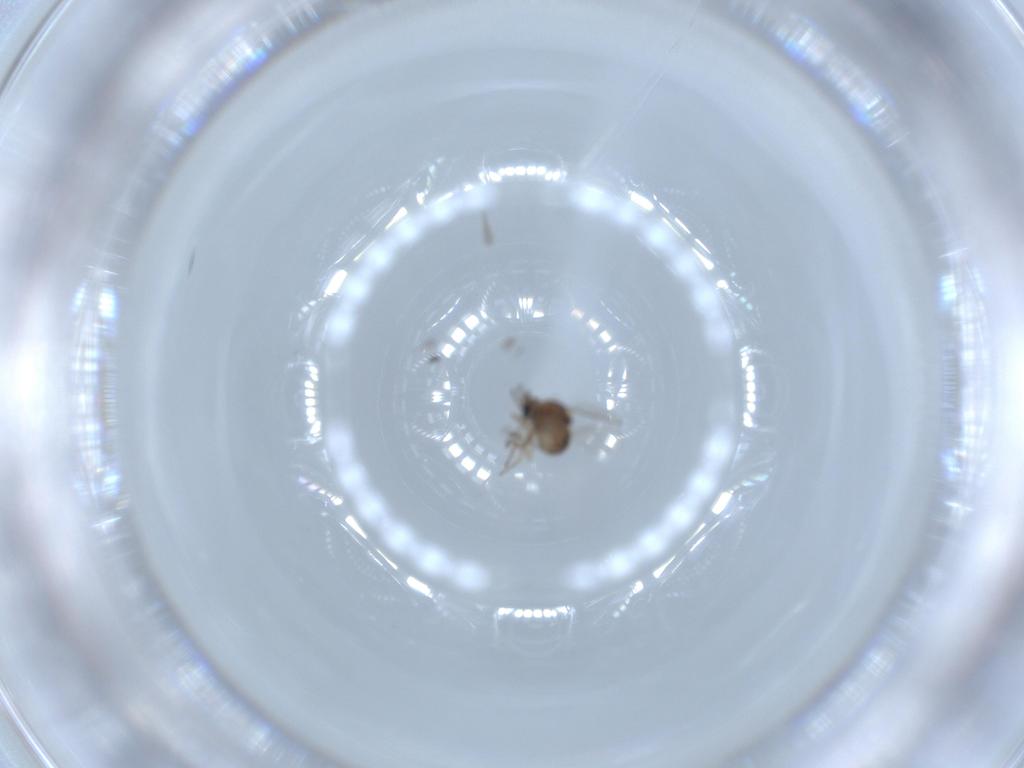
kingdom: Animalia
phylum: Arthropoda
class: Insecta
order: Diptera
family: Ceratopogonidae
